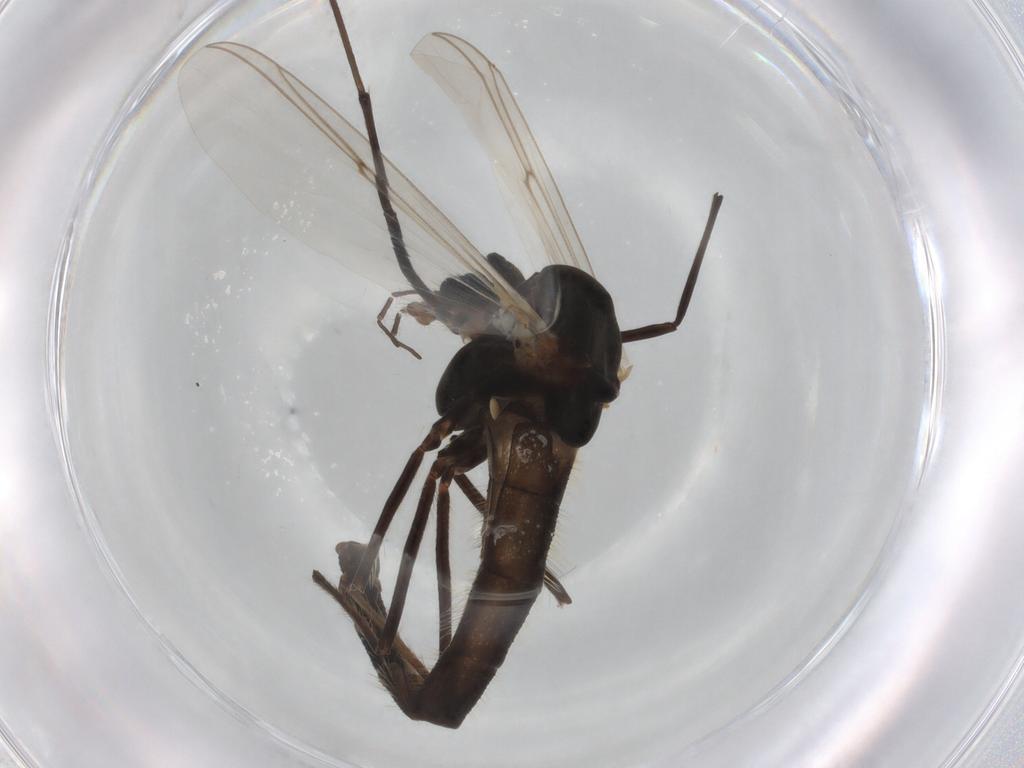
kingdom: Animalia
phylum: Arthropoda
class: Insecta
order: Diptera
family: Chironomidae
